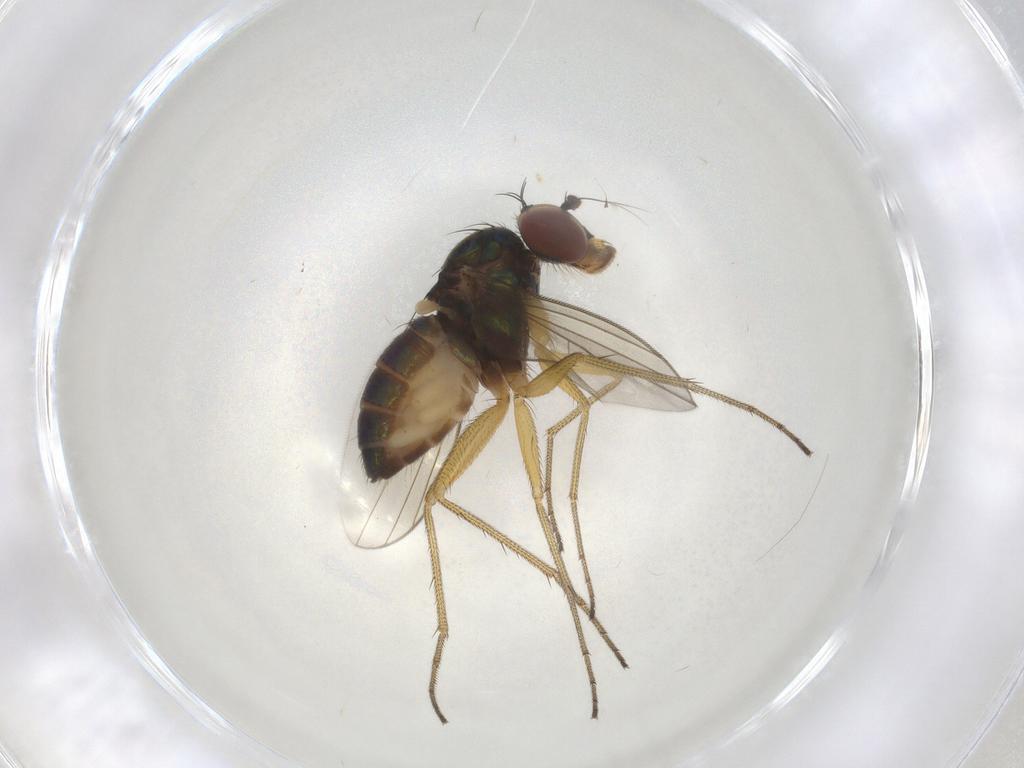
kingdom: Animalia
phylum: Arthropoda
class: Insecta
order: Diptera
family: Dolichopodidae
